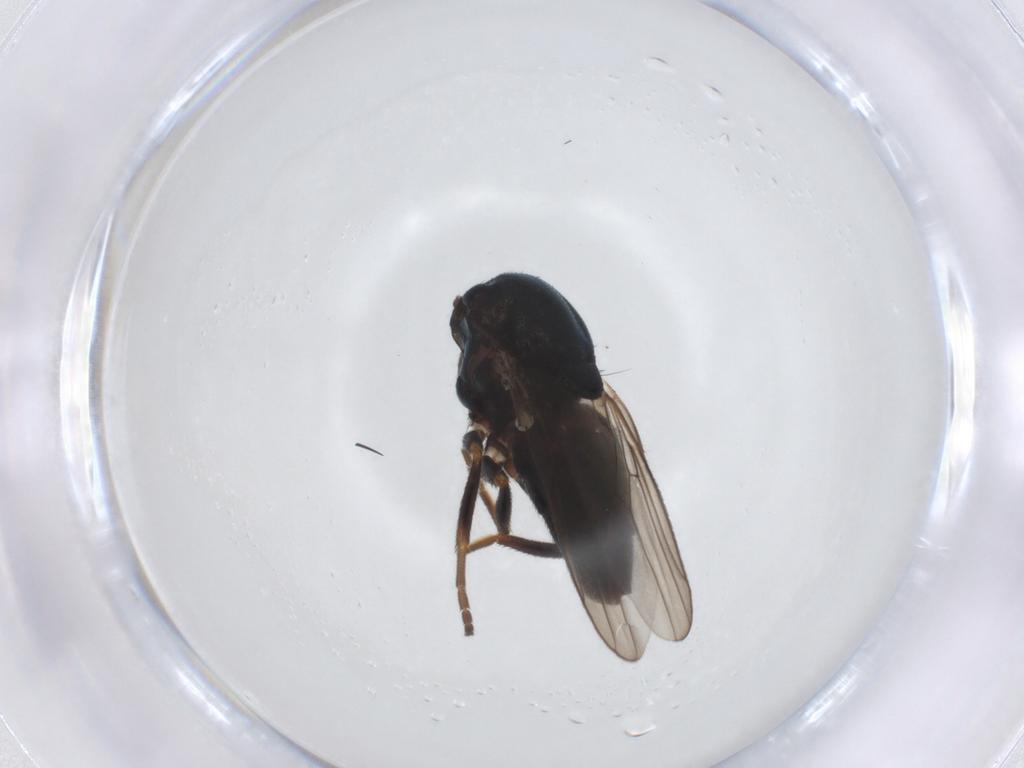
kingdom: Animalia
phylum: Arthropoda
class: Insecta
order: Diptera
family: Chloropidae
